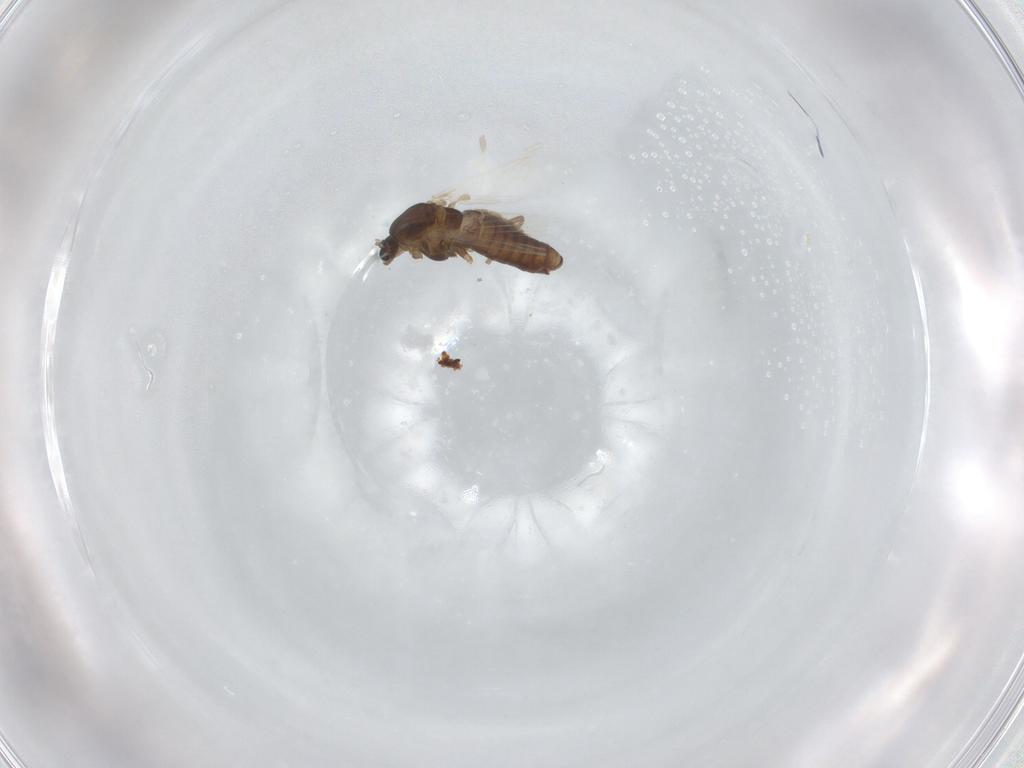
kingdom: Animalia
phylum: Arthropoda
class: Insecta
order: Diptera
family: Chironomidae
